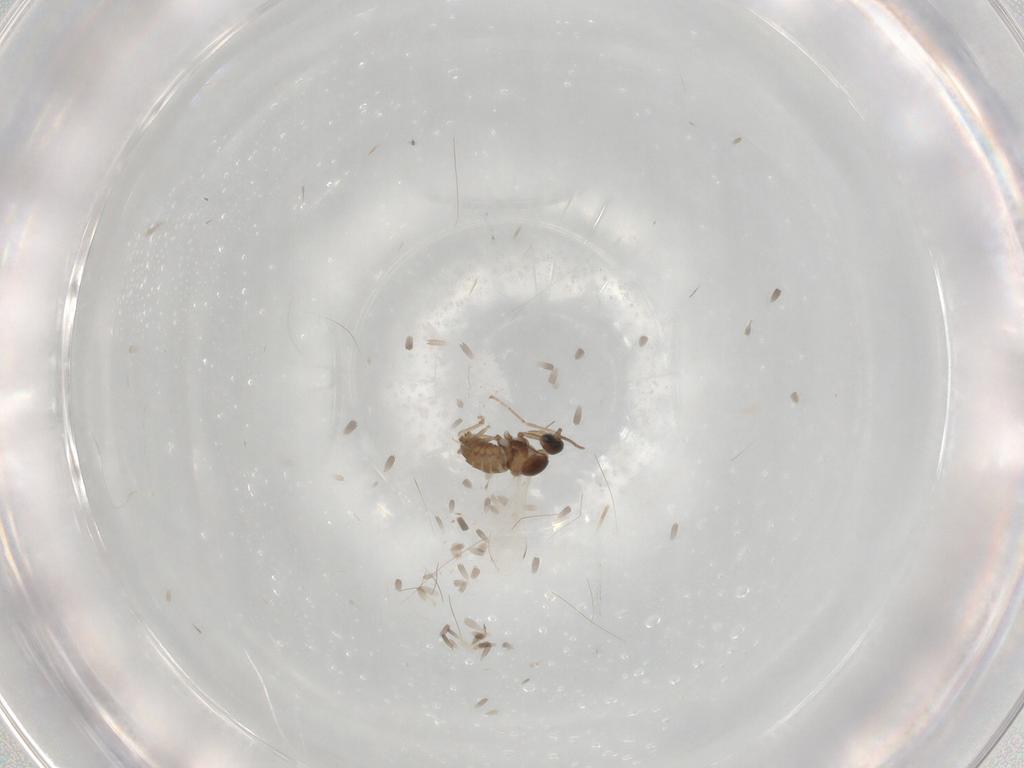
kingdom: Animalia
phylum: Arthropoda
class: Insecta
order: Diptera
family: Cecidomyiidae
